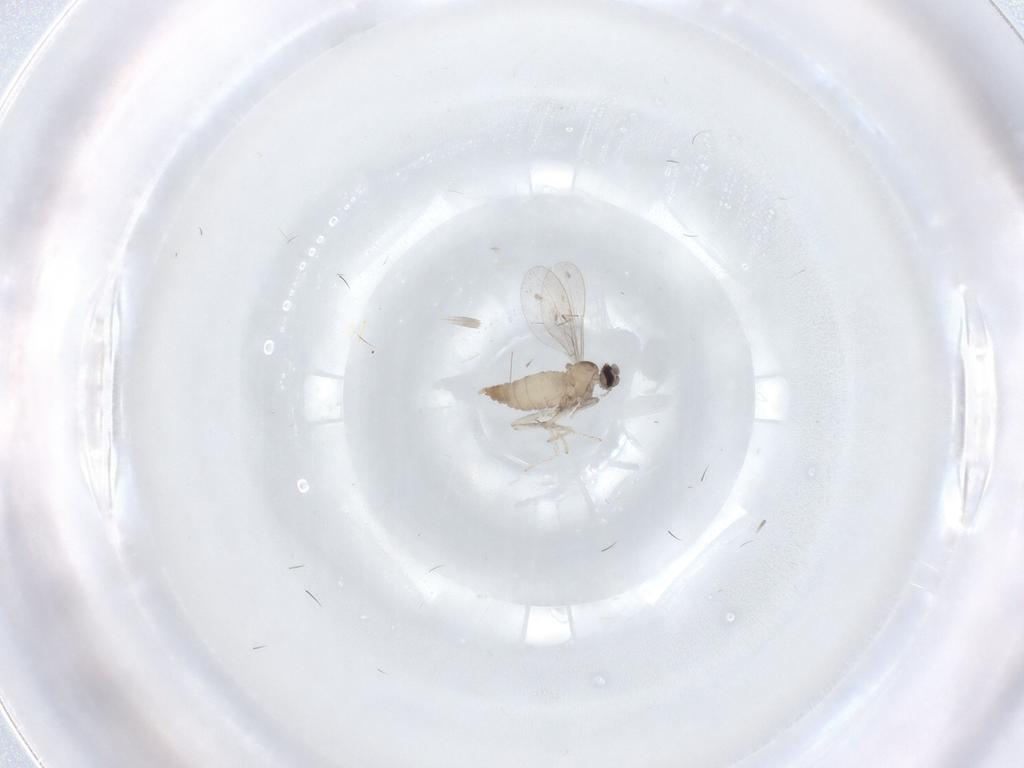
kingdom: Animalia
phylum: Arthropoda
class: Insecta
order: Diptera
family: Cecidomyiidae
